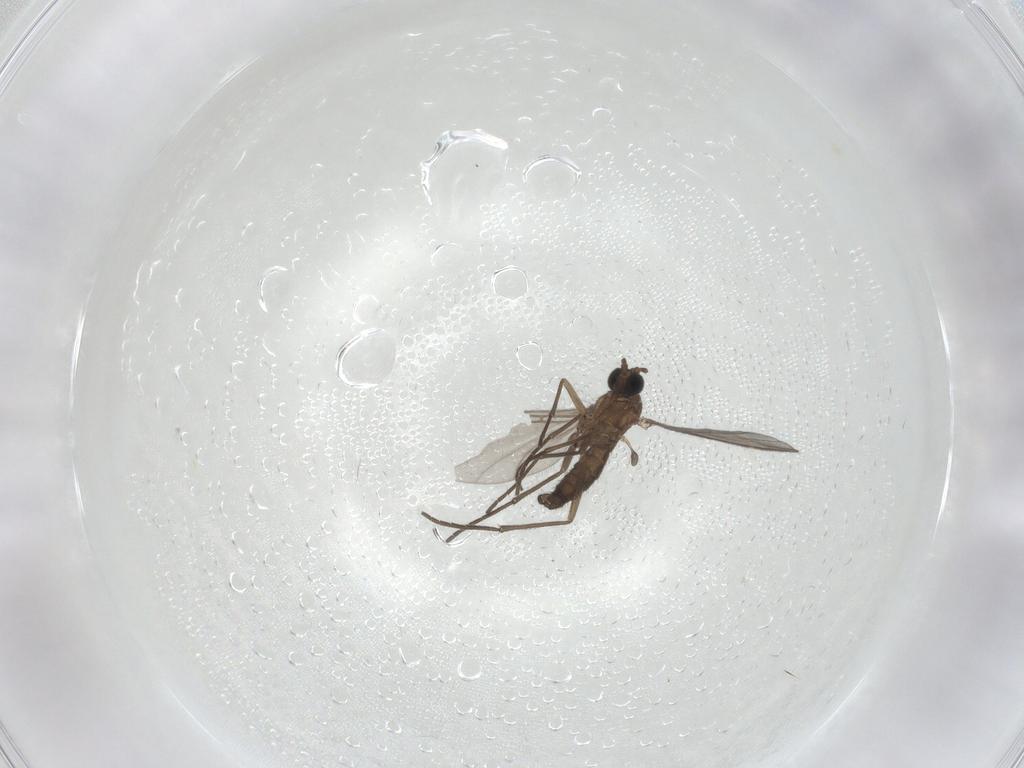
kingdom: Animalia
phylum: Arthropoda
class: Insecta
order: Diptera
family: Sciaridae
